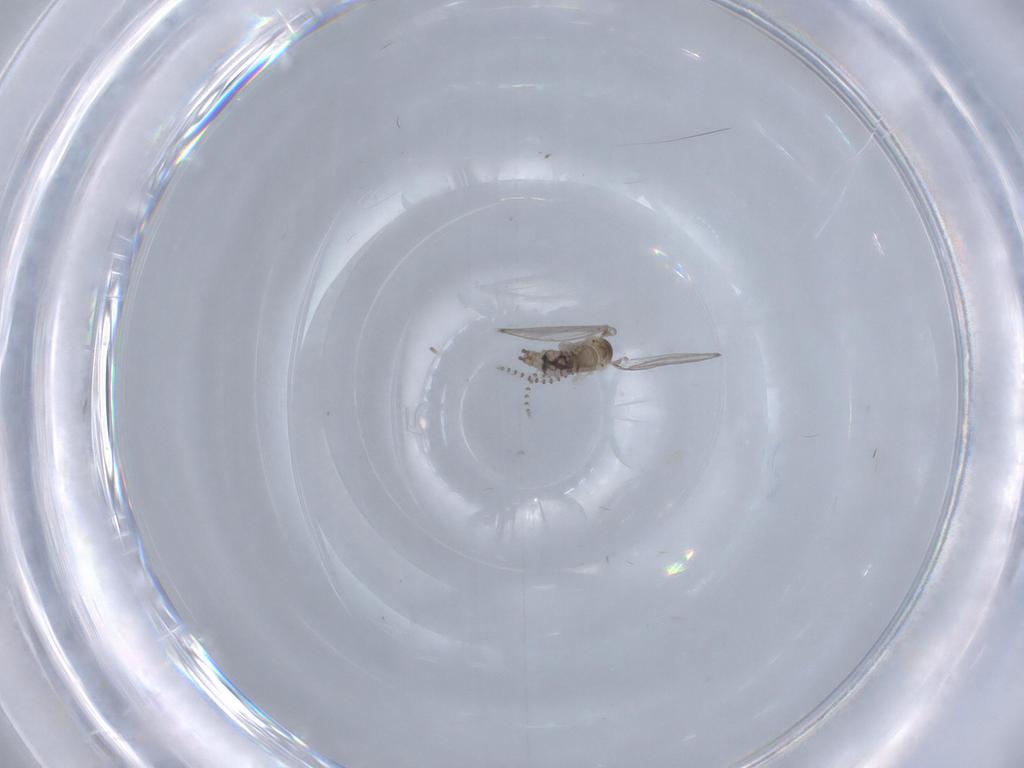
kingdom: Animalia
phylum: Arthropoda
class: Insecta
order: Diptera
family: Psychodidae
